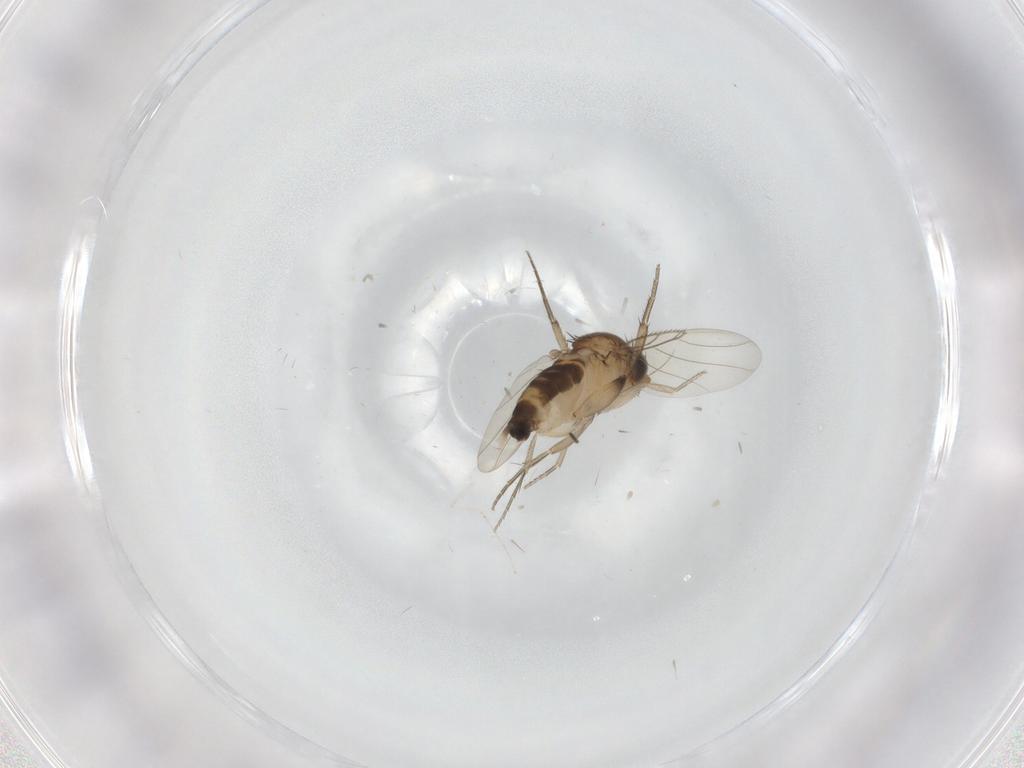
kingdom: Animalia
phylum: Arthropoda
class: Insecta
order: Diptera
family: Phoridae
